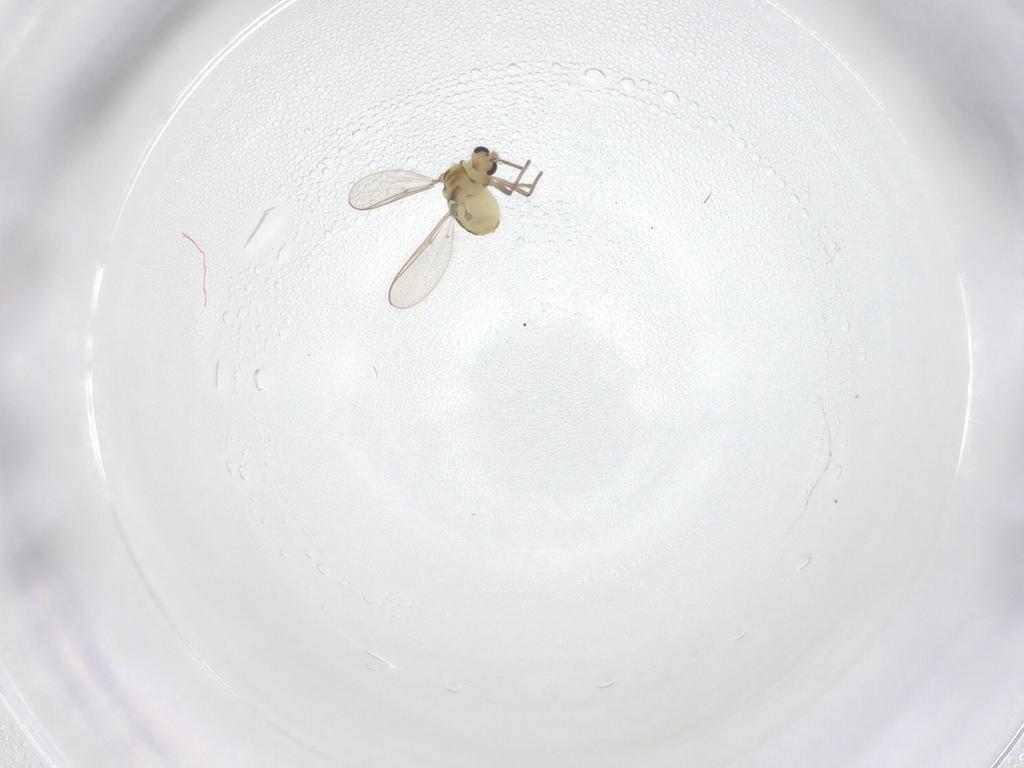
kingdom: Animalia
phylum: Arthropoda
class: Insecta
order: Diptera
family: Chironomidae
